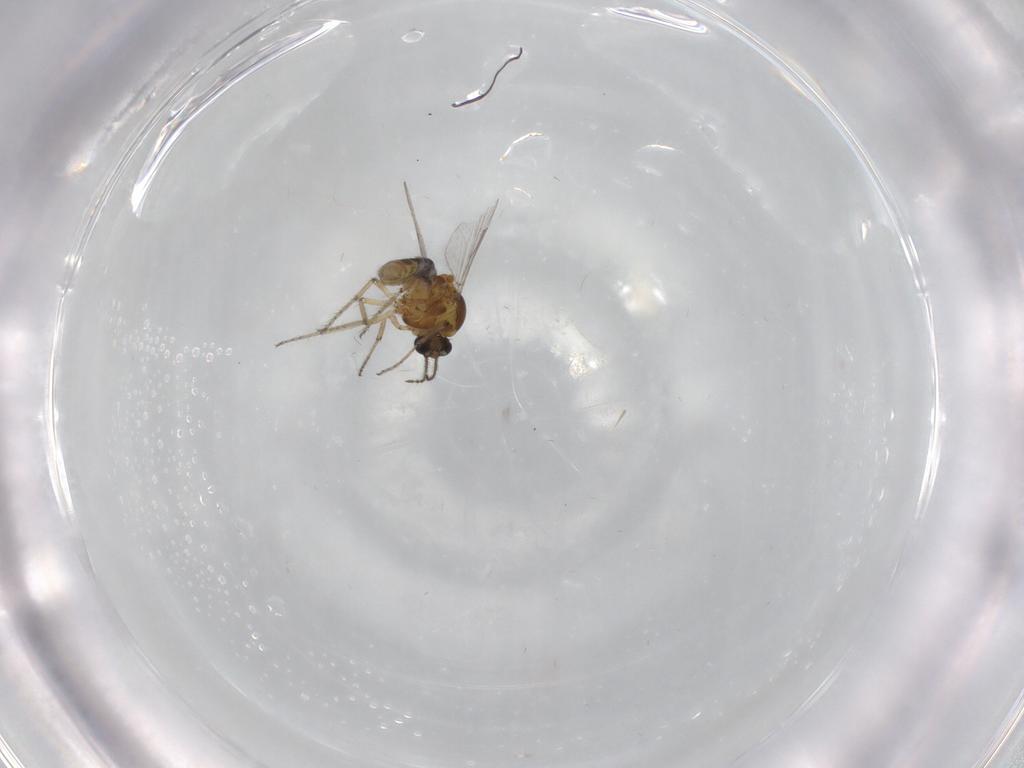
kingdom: Animalia
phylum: Arthropoda
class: Insecta
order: Diptera
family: Ceratopogonidae
